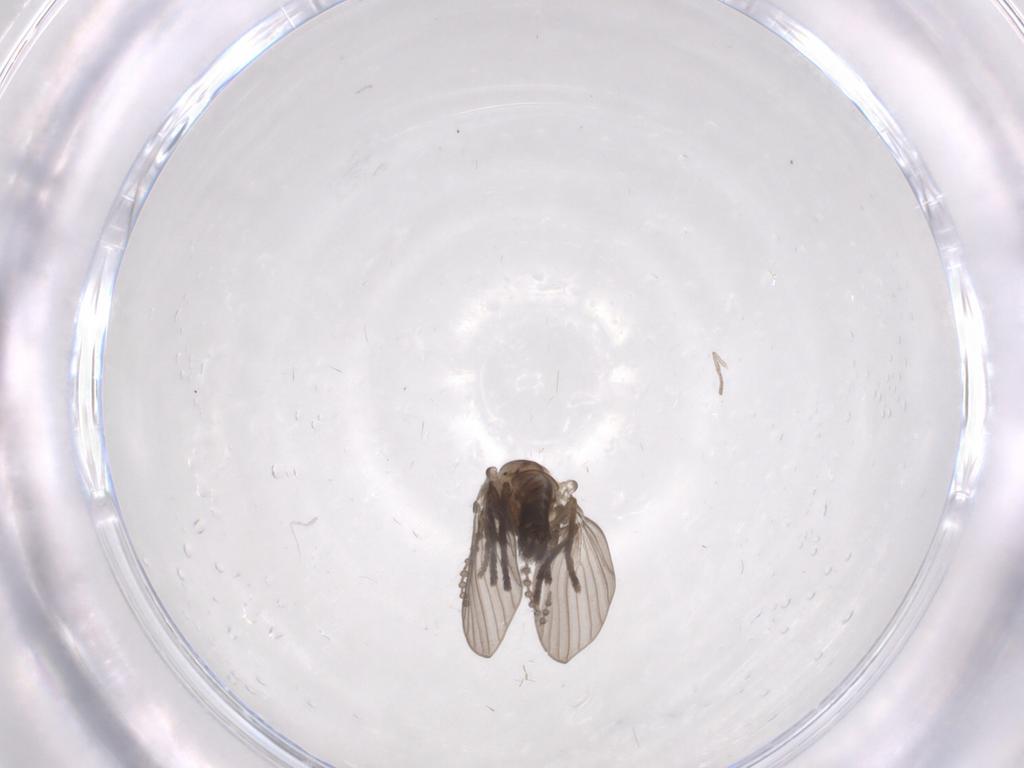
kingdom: Animalia
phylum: Arthropoda
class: Insecta
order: Diptera
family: Psychodidae
